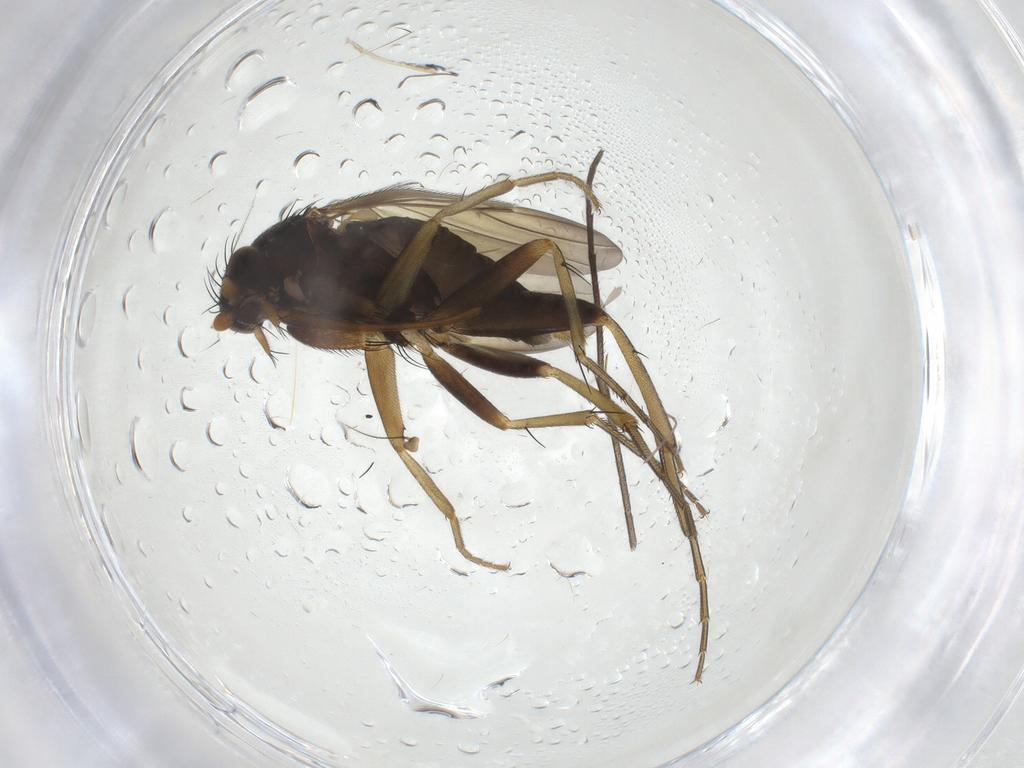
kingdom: Animalia
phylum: Arthropoda
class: Insecta
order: Diptera
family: Phoridae
